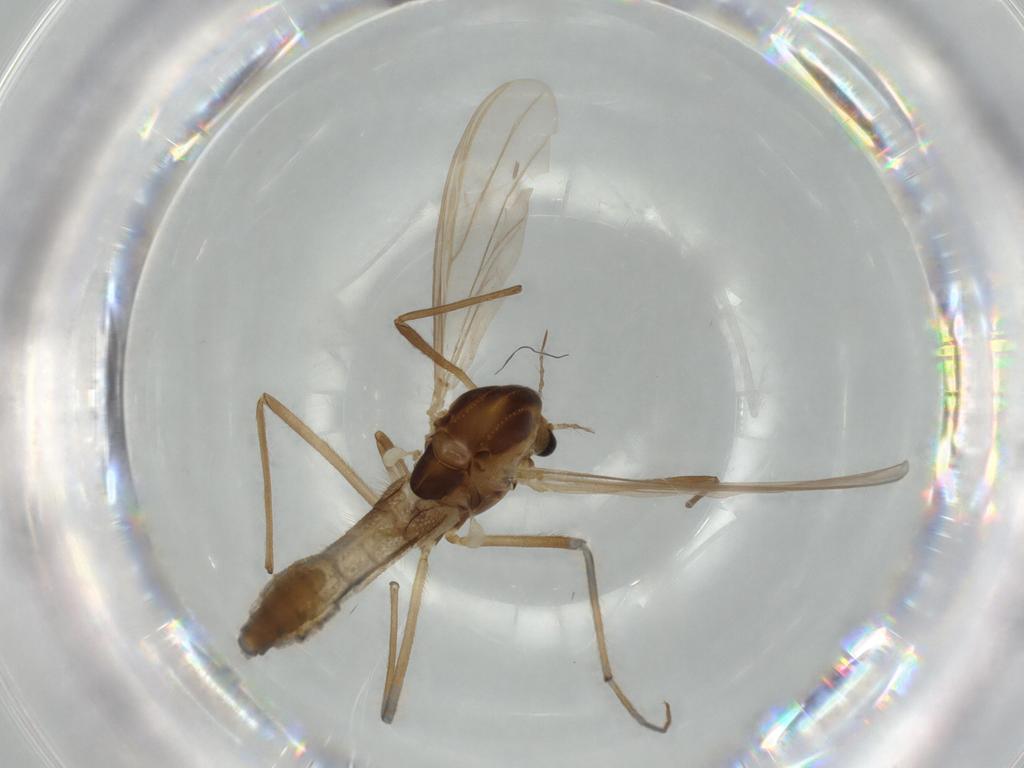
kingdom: Animalia
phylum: Arthropoda
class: Insecta
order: Diptera
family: Chironomidae
